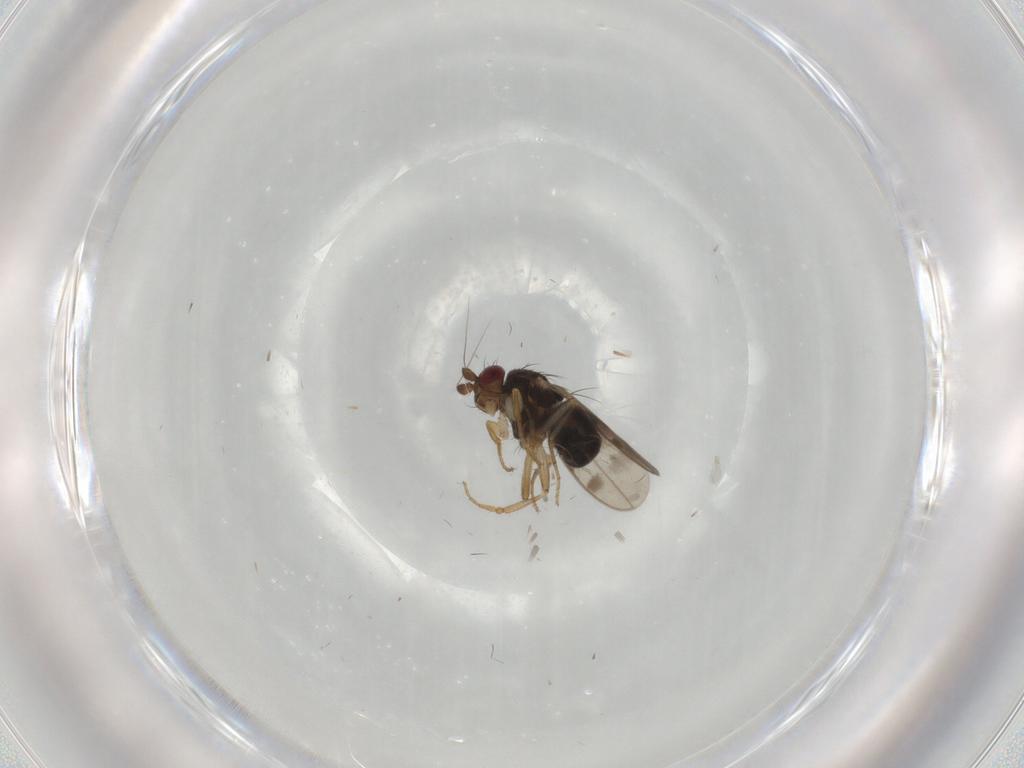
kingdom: Animalia
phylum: Arthropoda
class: Insecta
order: Diptera
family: Sphaeroceridae
